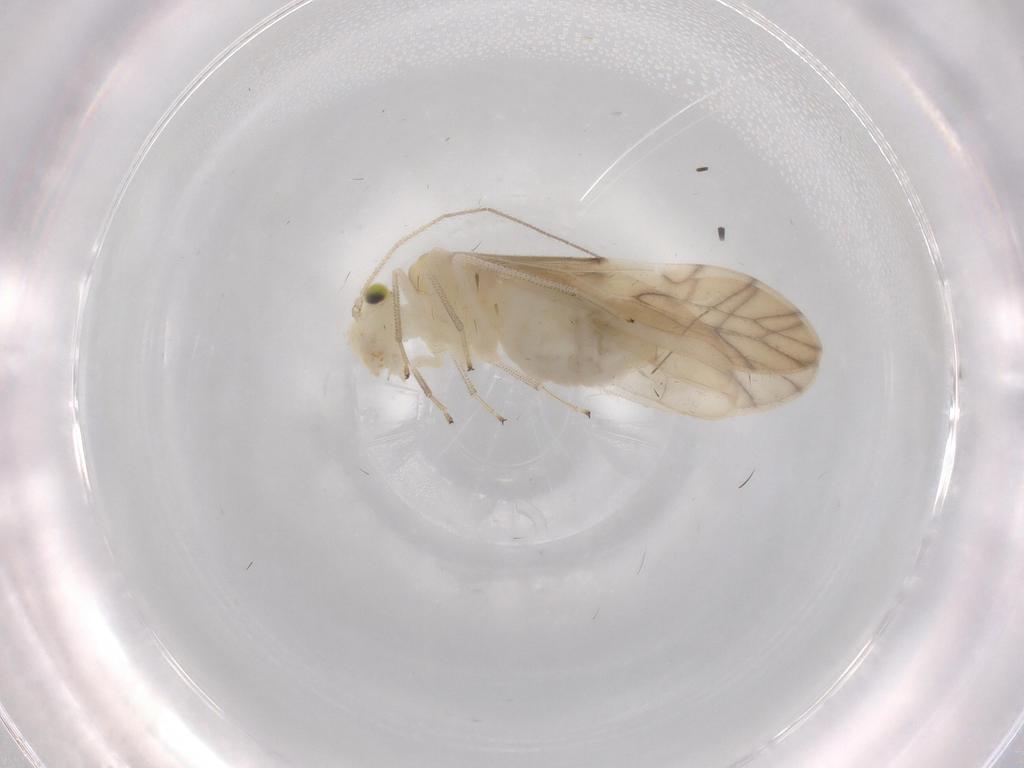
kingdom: Animalia
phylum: Arthropoda
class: Insecta
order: Psocodea
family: Caeciliusidae
